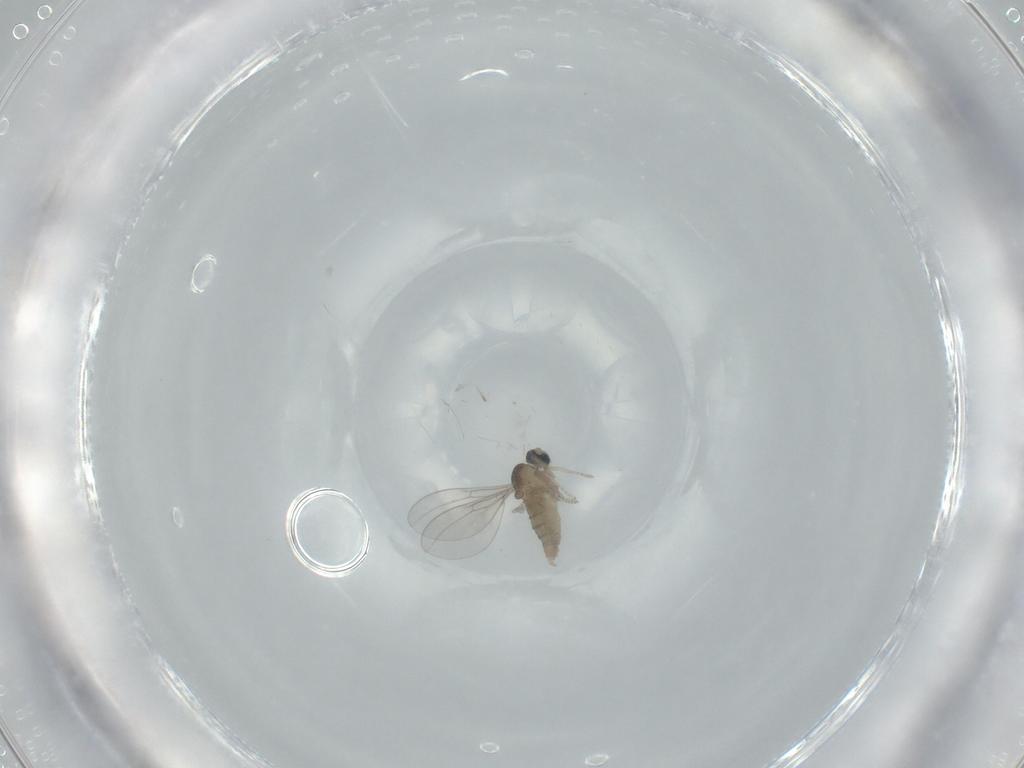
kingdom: Animalia
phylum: Arthropoda
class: Insecta
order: Diptera
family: Cecidomyiidae
